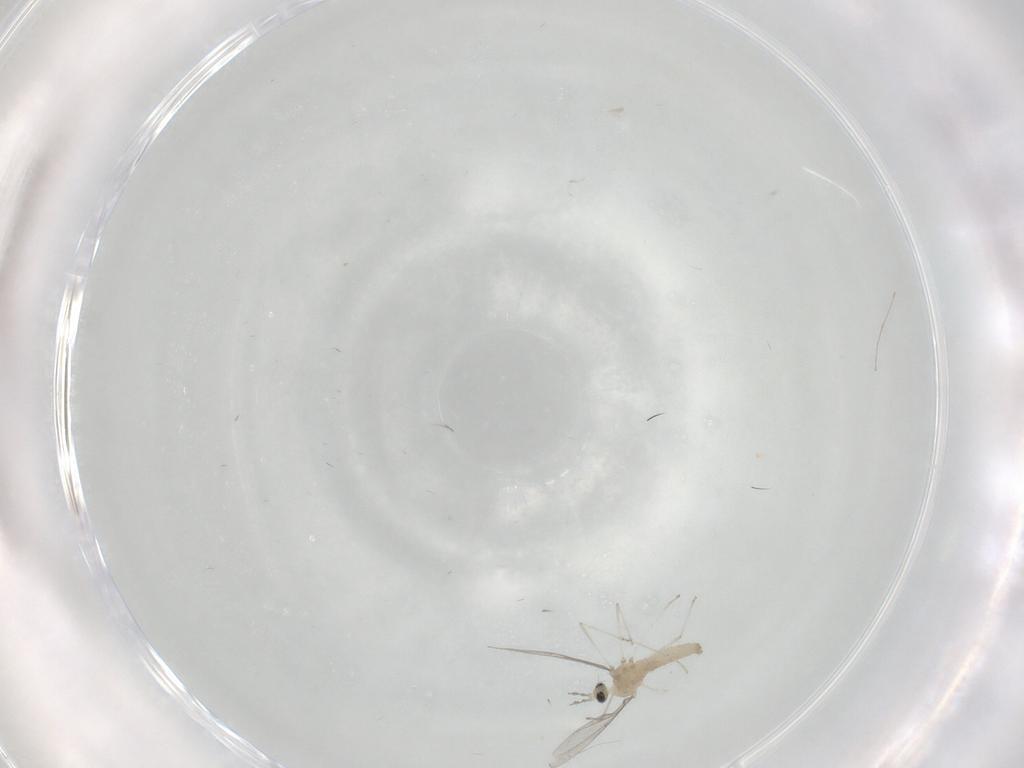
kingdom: Animalia
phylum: Arthropoda
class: Insecta
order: Diptera
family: Cecidomyiidae
